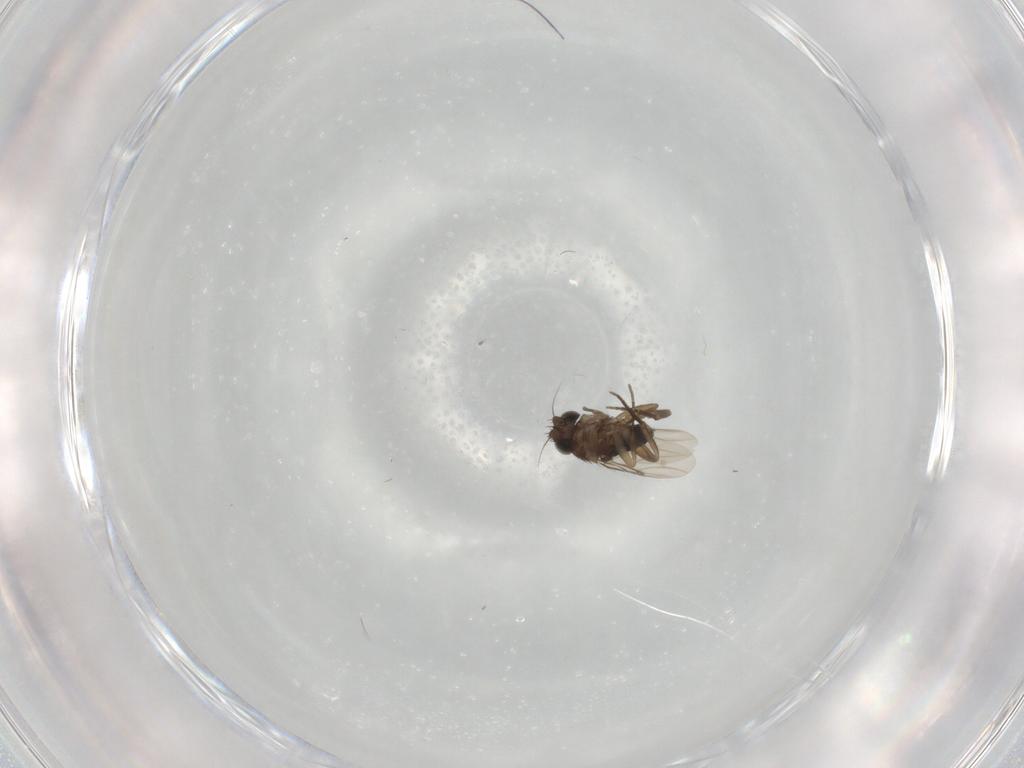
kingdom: Animalia
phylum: Arthropoda
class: Insecta
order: Diptera
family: Phoridae
